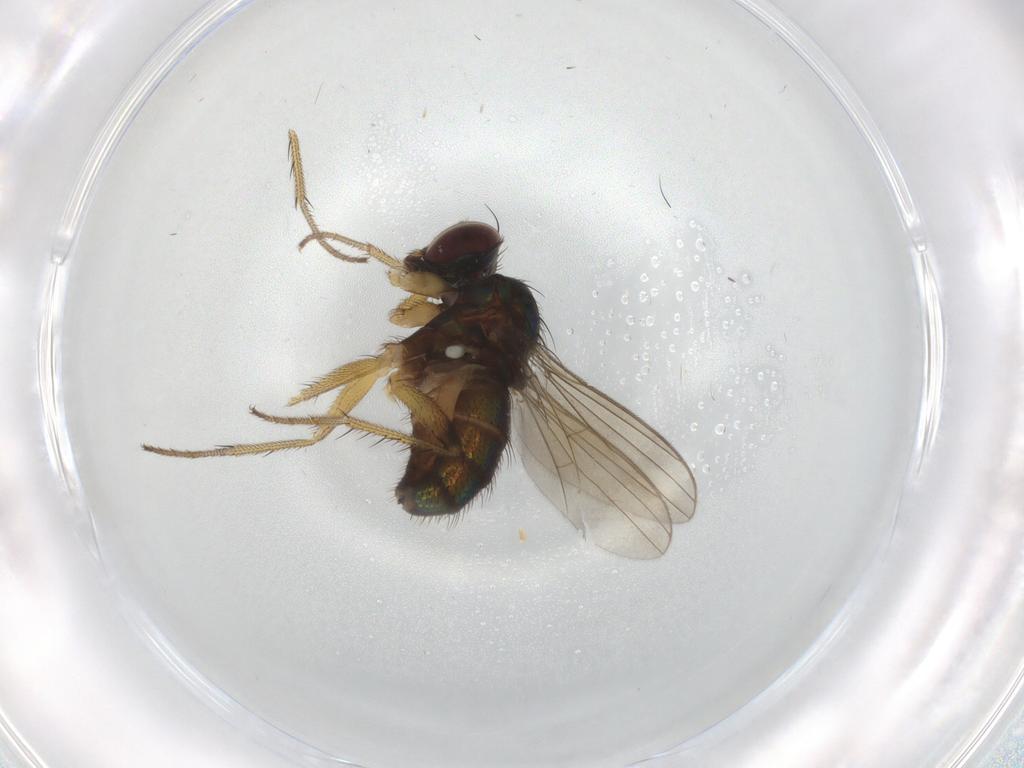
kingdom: Animalia
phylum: Arthropoda
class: Insecta
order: Diptera
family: Dolichopodidae
